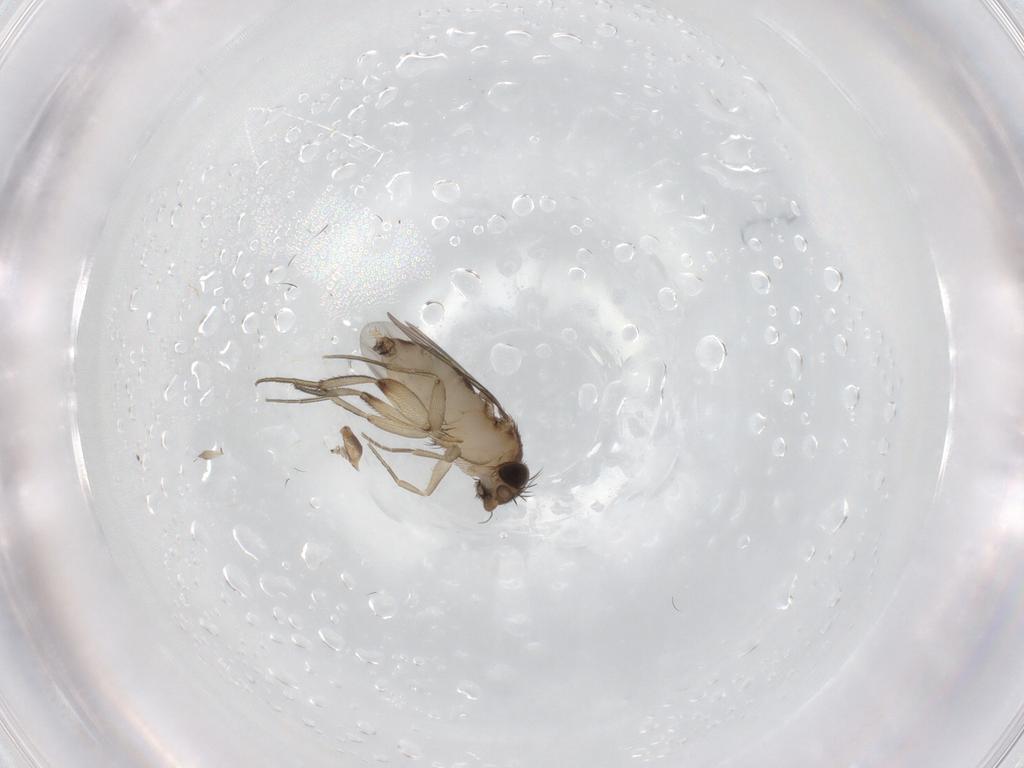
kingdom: Animalia
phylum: Arthropoda
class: Insecta
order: Diptera
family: Phoridae
